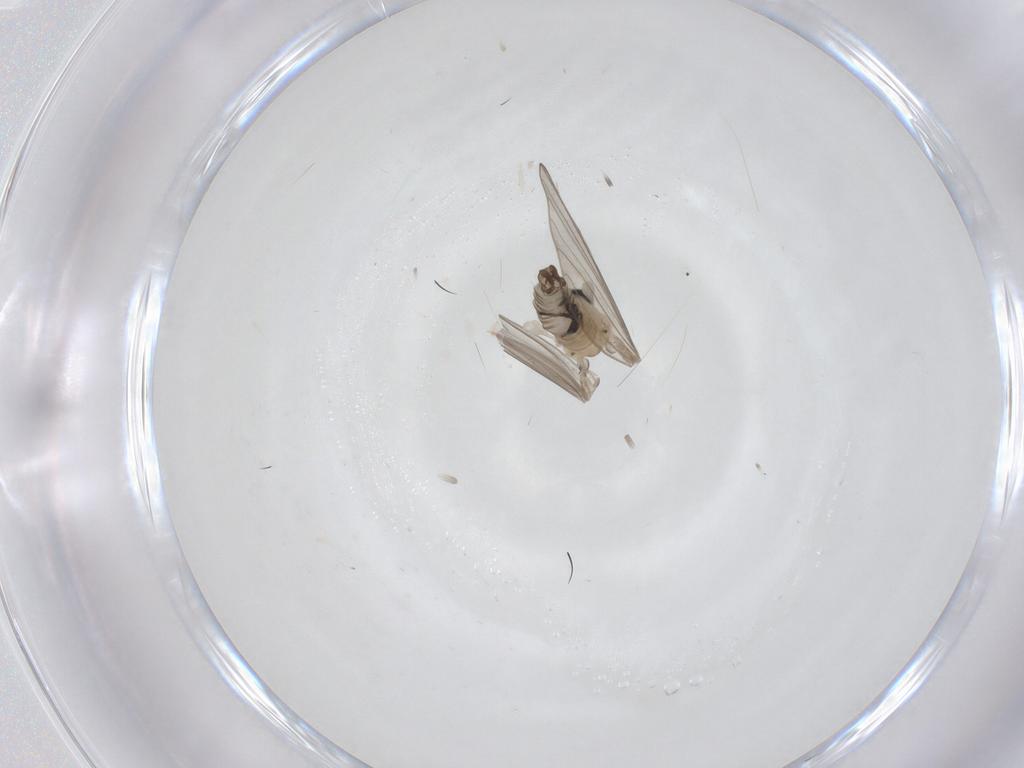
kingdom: Animalia
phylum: Arthropoda
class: Insecta
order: Diptera
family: Psychodidae
